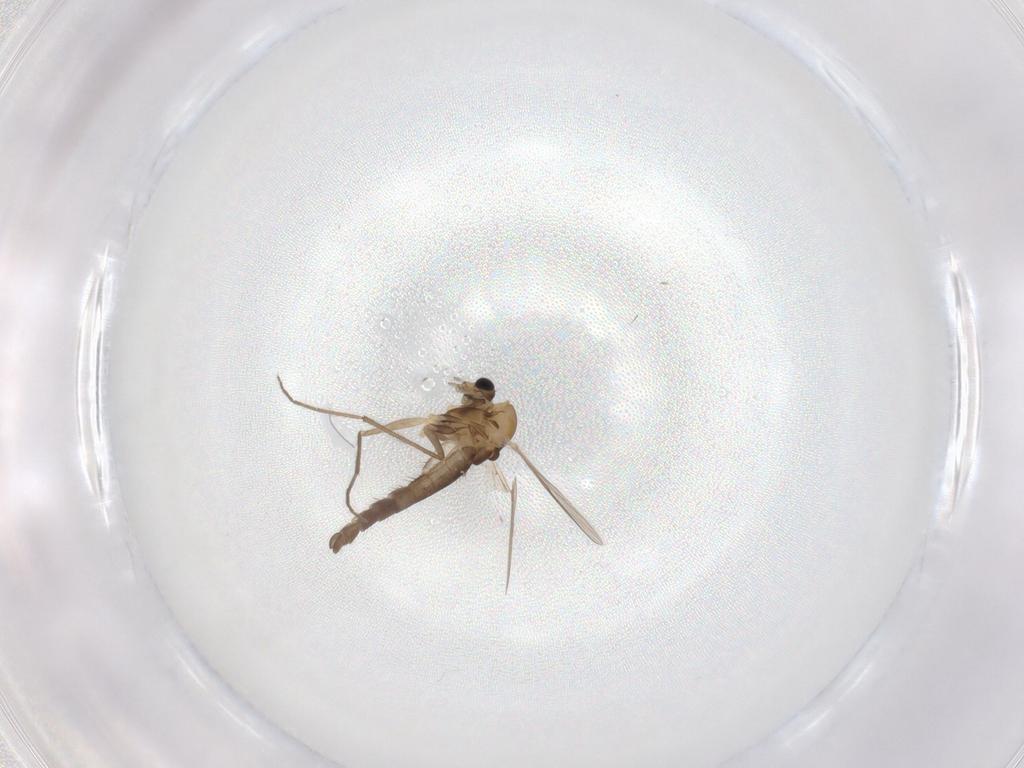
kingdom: Animalia
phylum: Arthropoda
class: Insecta
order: Diptera
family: Chironomidae
